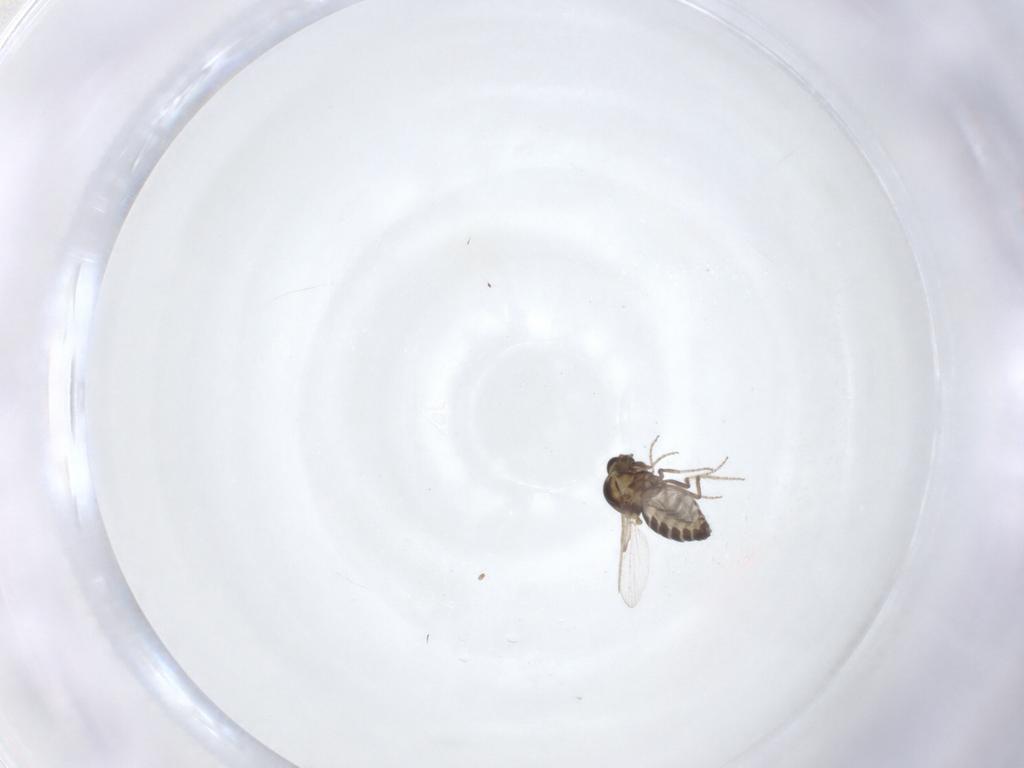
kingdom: Animalia
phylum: Arthropoda
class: Insecta
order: Diptera
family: Ceratopogonidae
